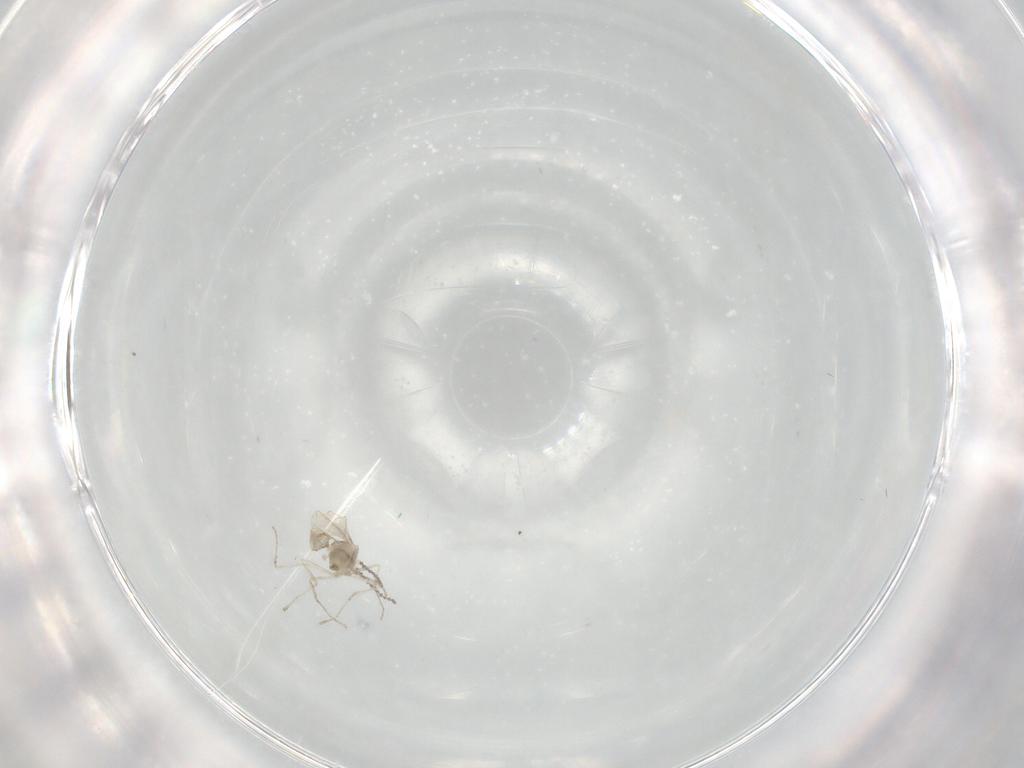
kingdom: Animalia
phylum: Arthropoda
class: Insecta
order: Diptera
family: Cecidomyiidae
